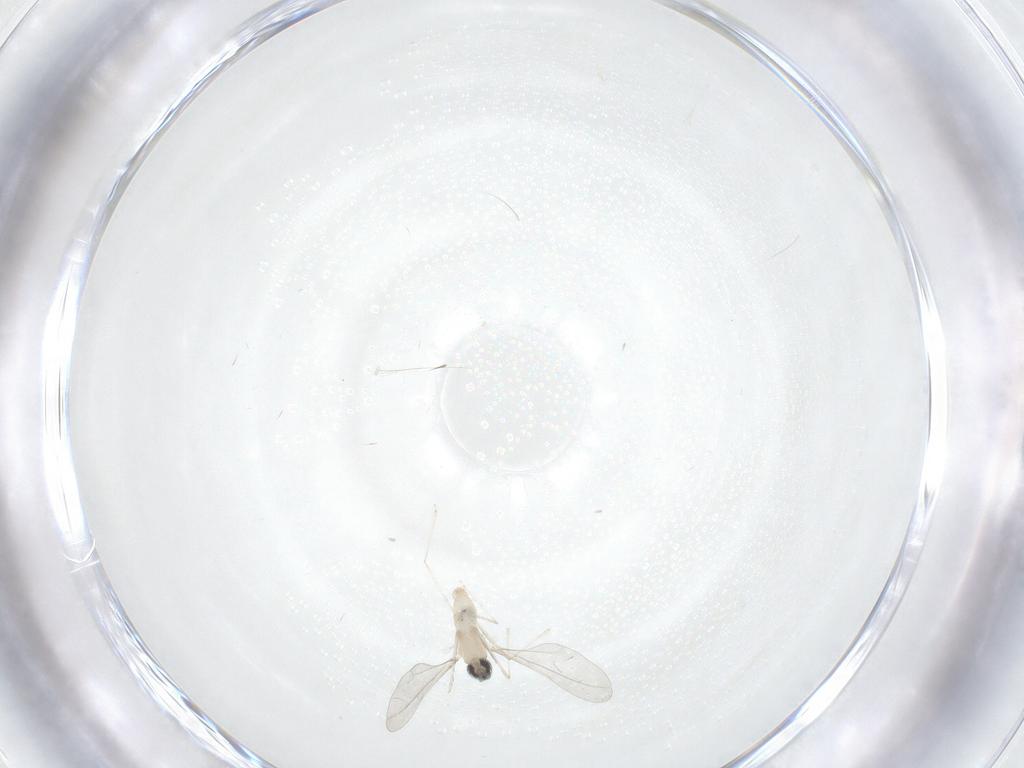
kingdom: Animalia
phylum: Arthropoda
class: Insecta
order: Diptera
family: Cecidomyiidae
